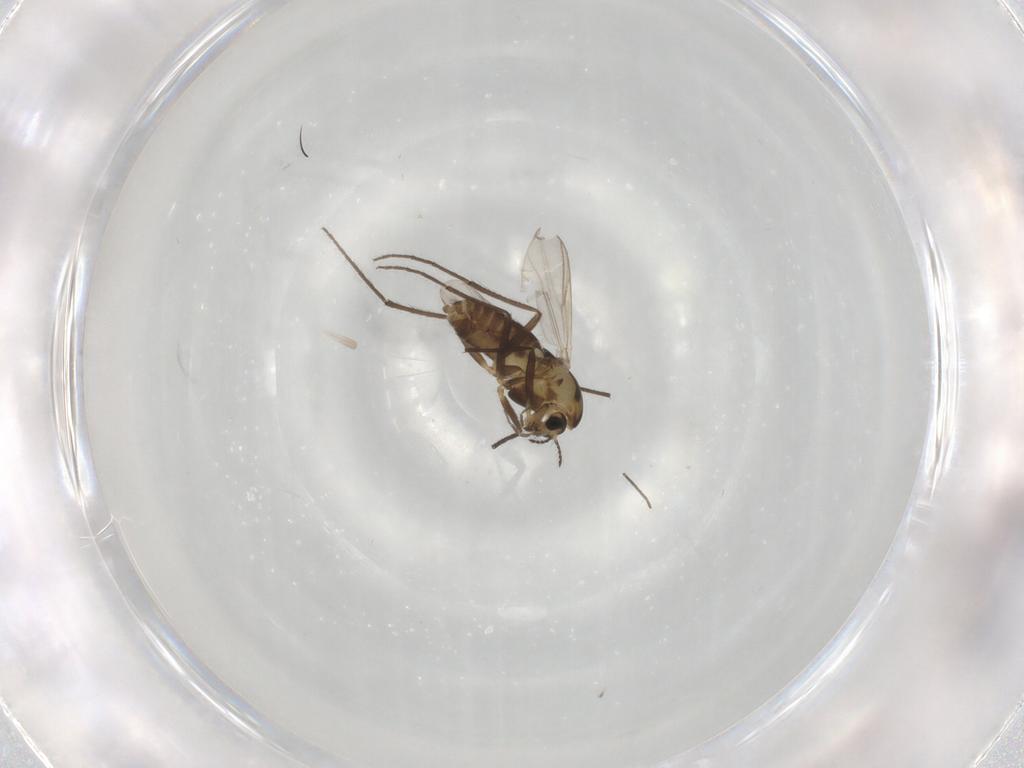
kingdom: Animalia
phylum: Arthropoda
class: Insecta
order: Diptera
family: Chironomidae
